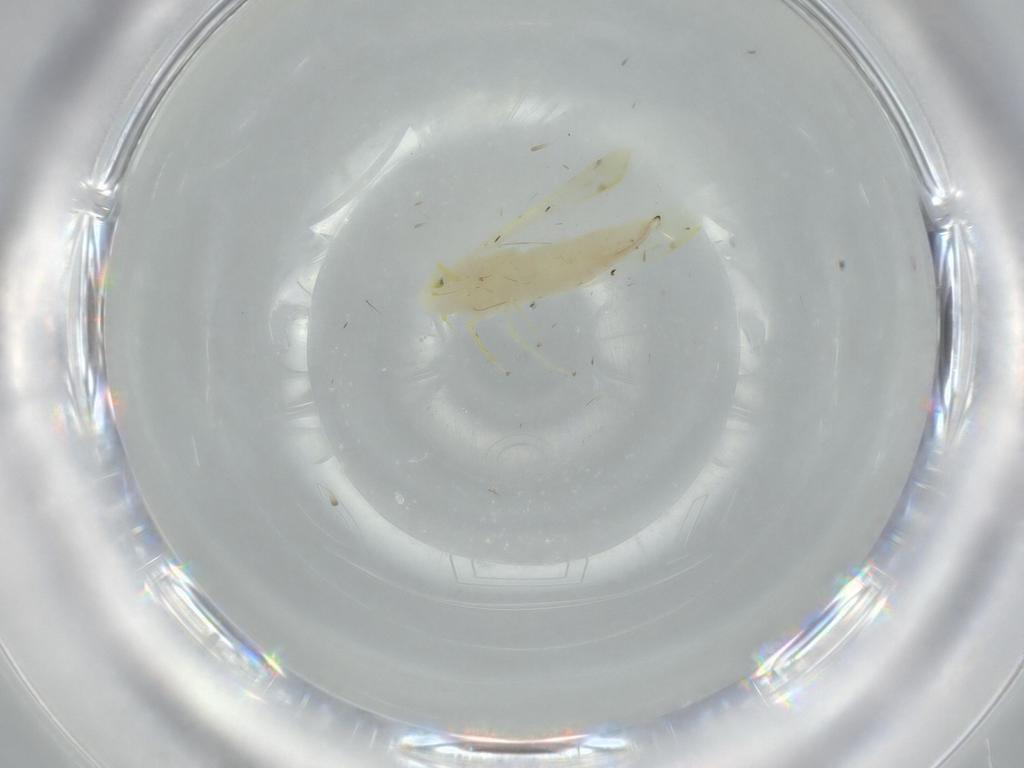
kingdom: Animalia
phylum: Arthropoda
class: Insecta
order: Hemiptera
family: Cicadellidae
